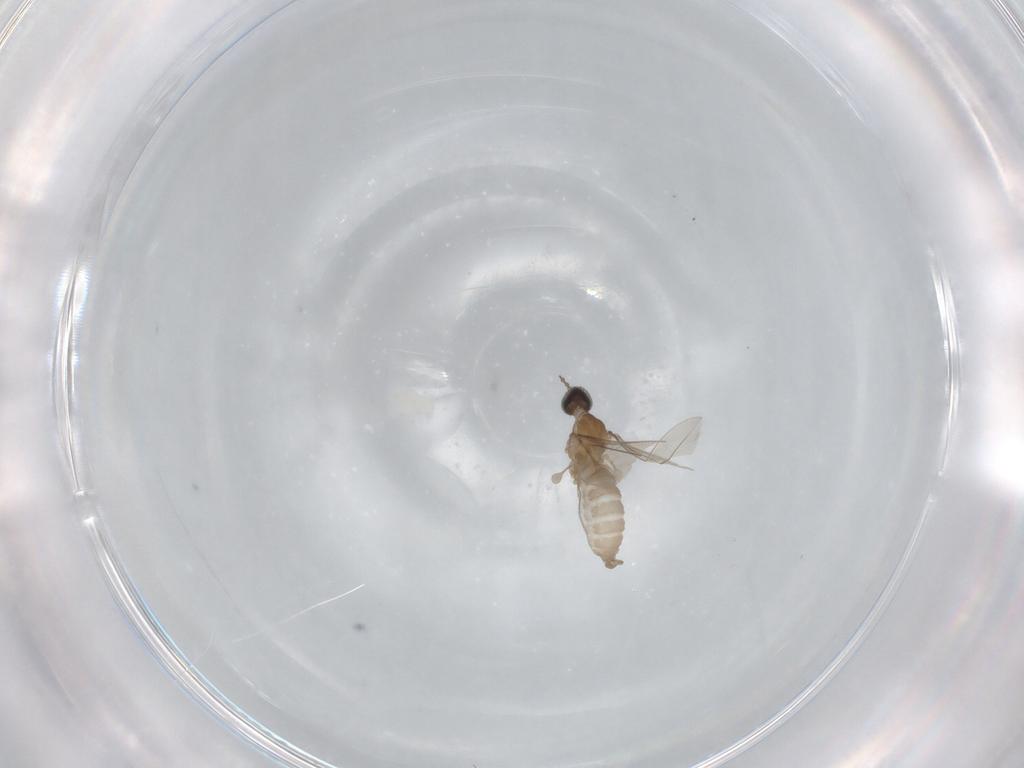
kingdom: Animalia
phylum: Arthropoda
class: Insecta
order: Diptera
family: Cecidomyiidae
